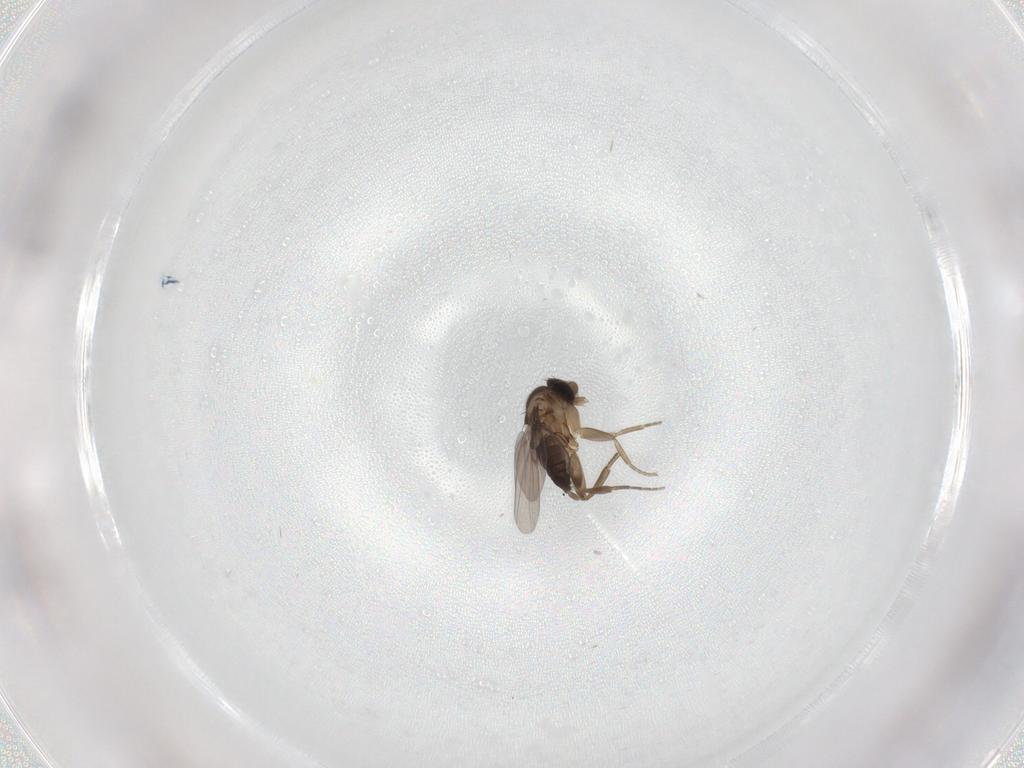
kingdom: Animalia
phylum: Arthropoda
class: Insecta
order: Diptera
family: Phoridae
